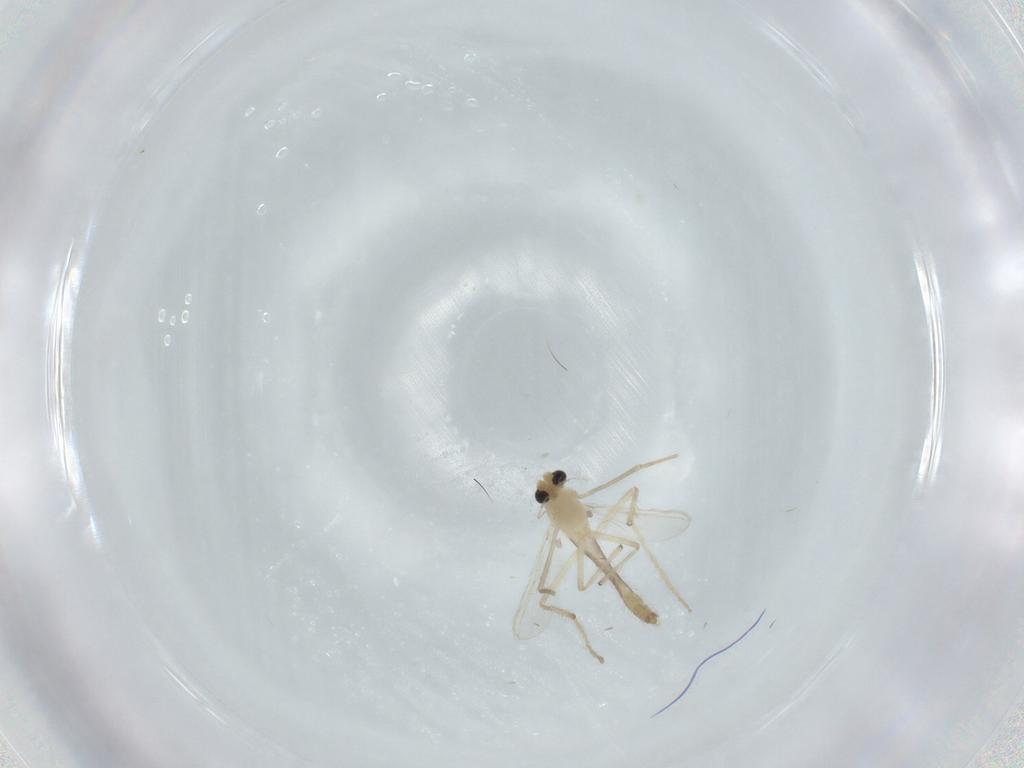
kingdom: Animalia
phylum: Arthropoda
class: Insecta
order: Diptera
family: Chironomidae
